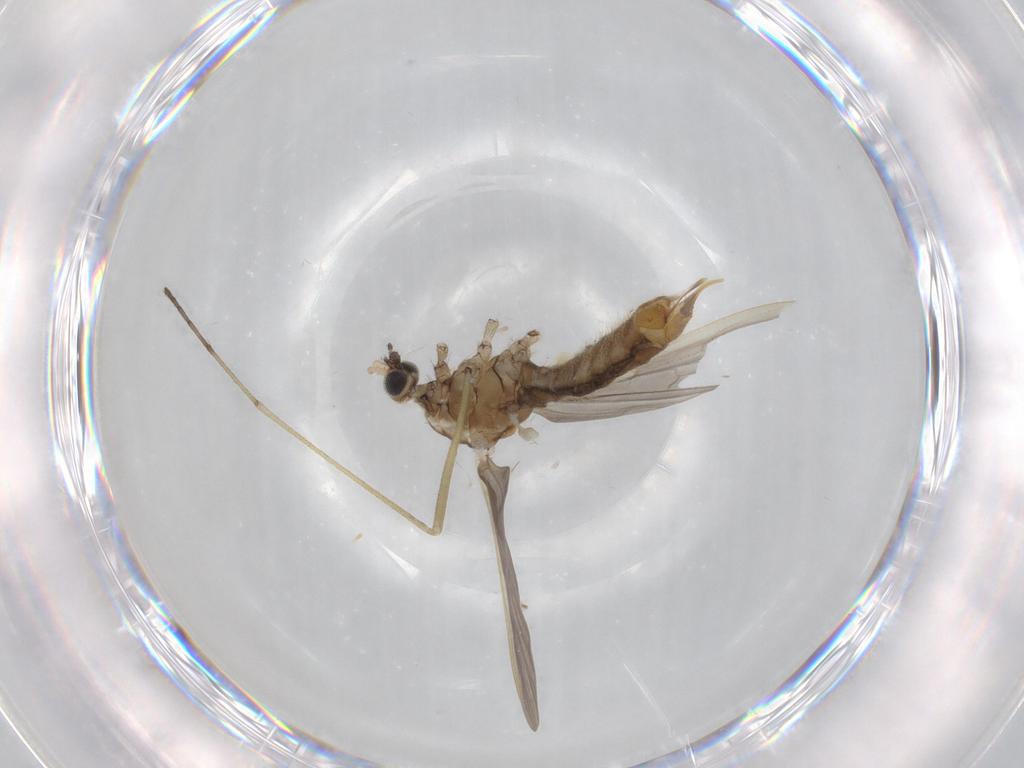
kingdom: Animalia
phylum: Arthropoda
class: Insecta
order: Diptera
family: Limoniidae
